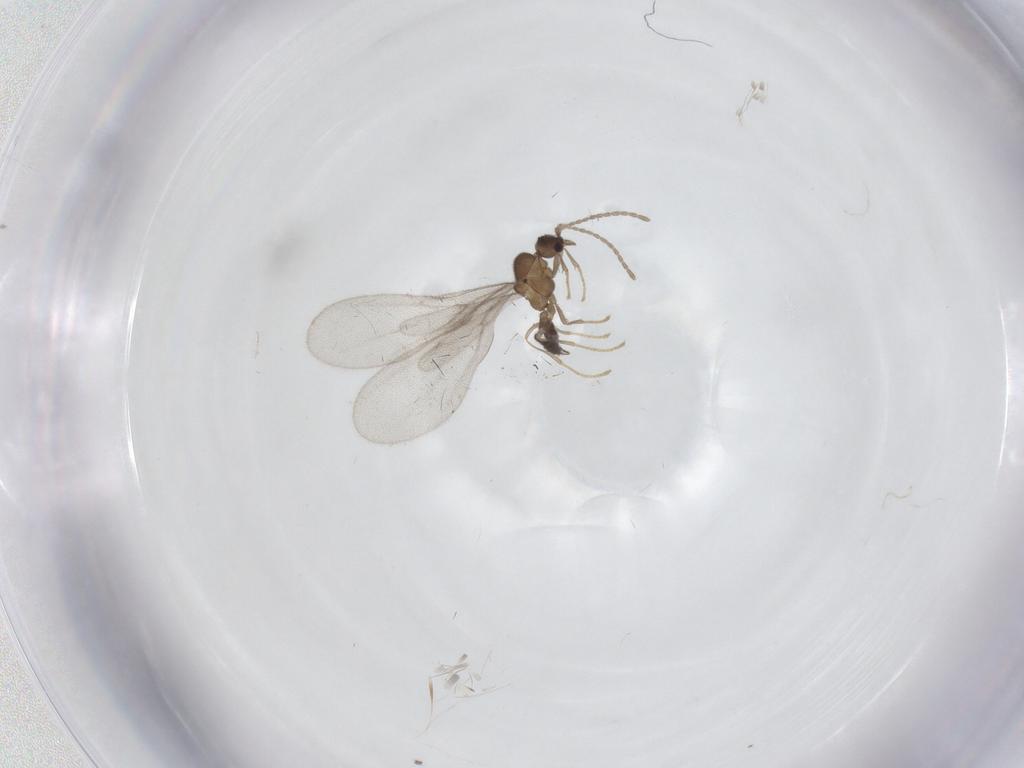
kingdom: Animalia
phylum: Arthropoda
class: Insecta
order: Hymenoptera
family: Formicidae
